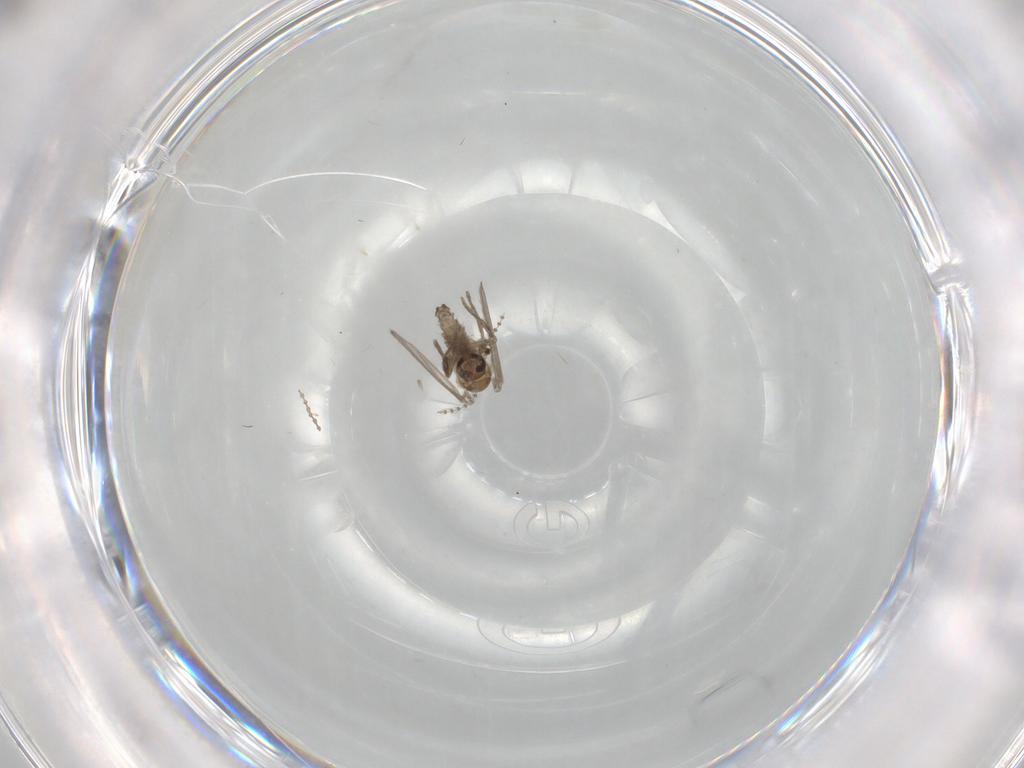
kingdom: Animalia
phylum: Arthropoda
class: Insecta
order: Diptera
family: Psychodidae
